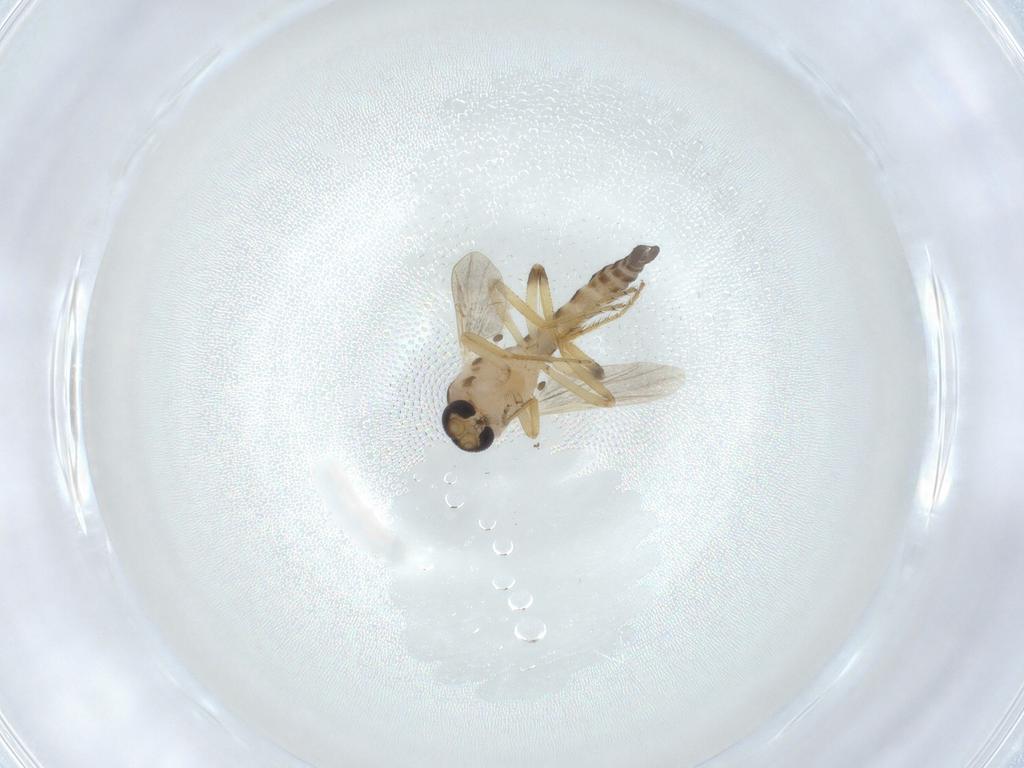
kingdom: Animalia
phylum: Arthropoda
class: Insecta
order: Diptera
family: Ceratopogonidae
